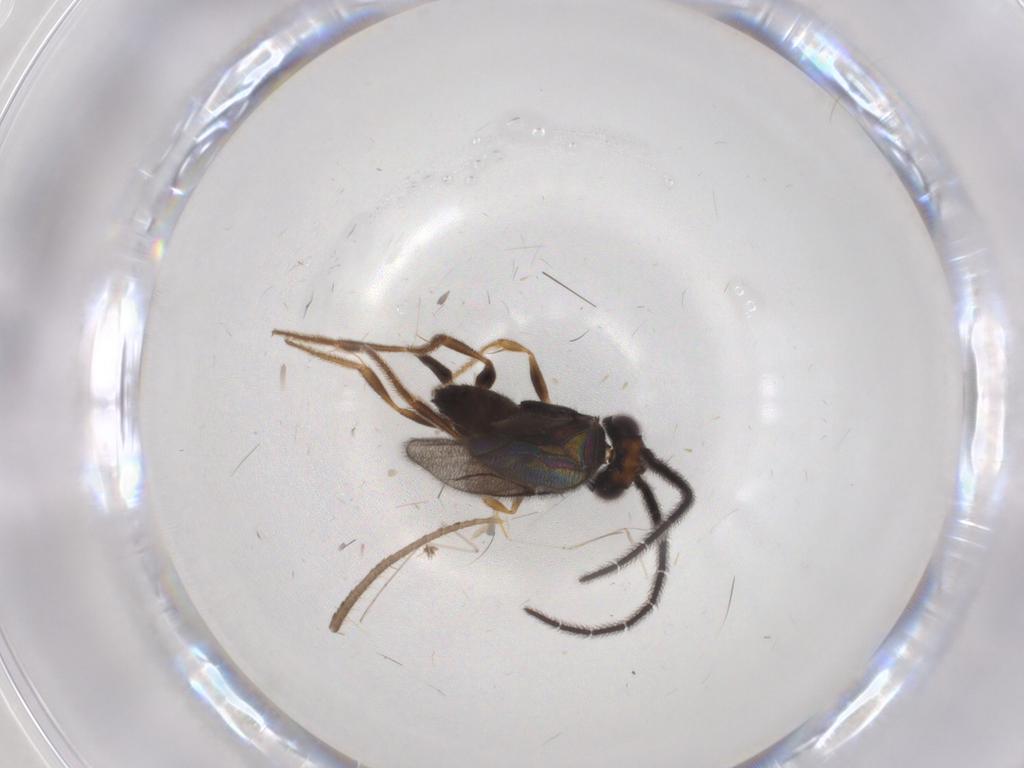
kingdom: Animalia
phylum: Arthropoda
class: Insecta
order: Hymenoptera
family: Dryinidae
